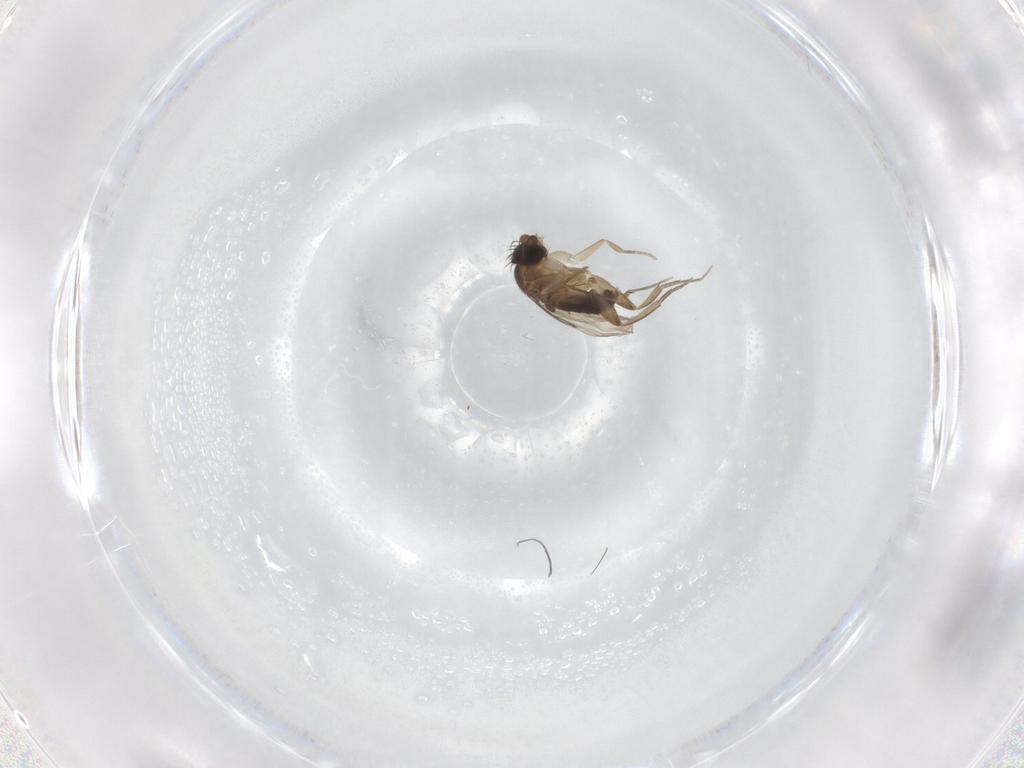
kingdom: Animalia
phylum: Arthropoda
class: Insecta
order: Diptera
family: Phoridae
